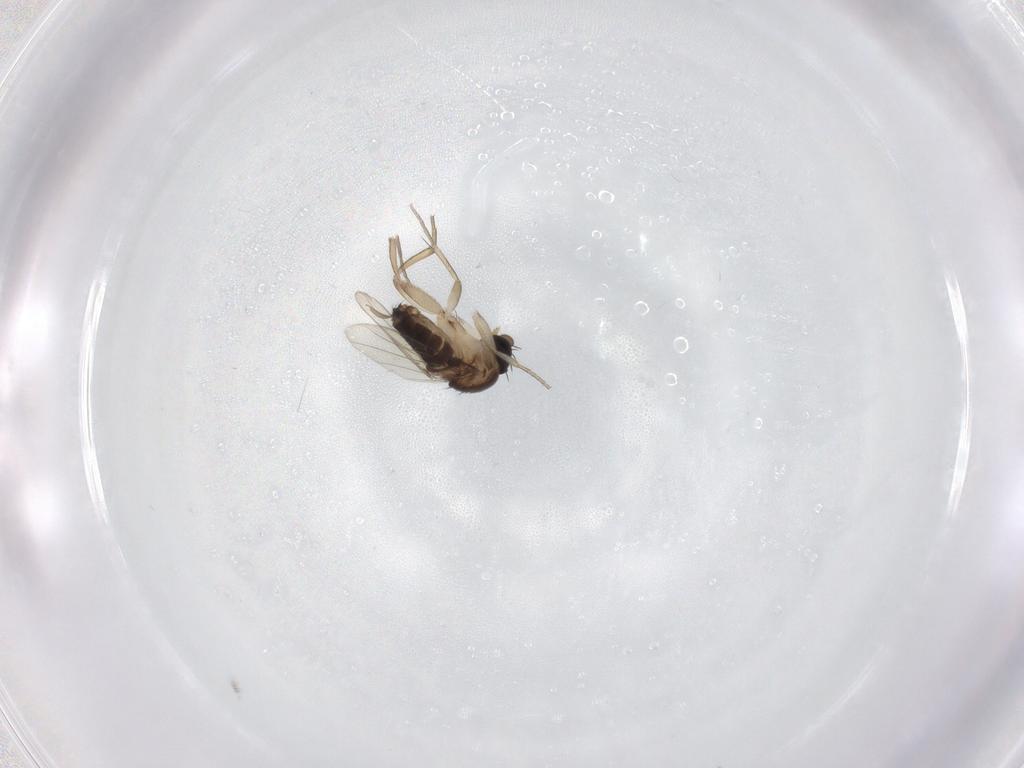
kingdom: Animalia
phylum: Arthropoda
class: Insecta
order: Diptera
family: Phoridae
